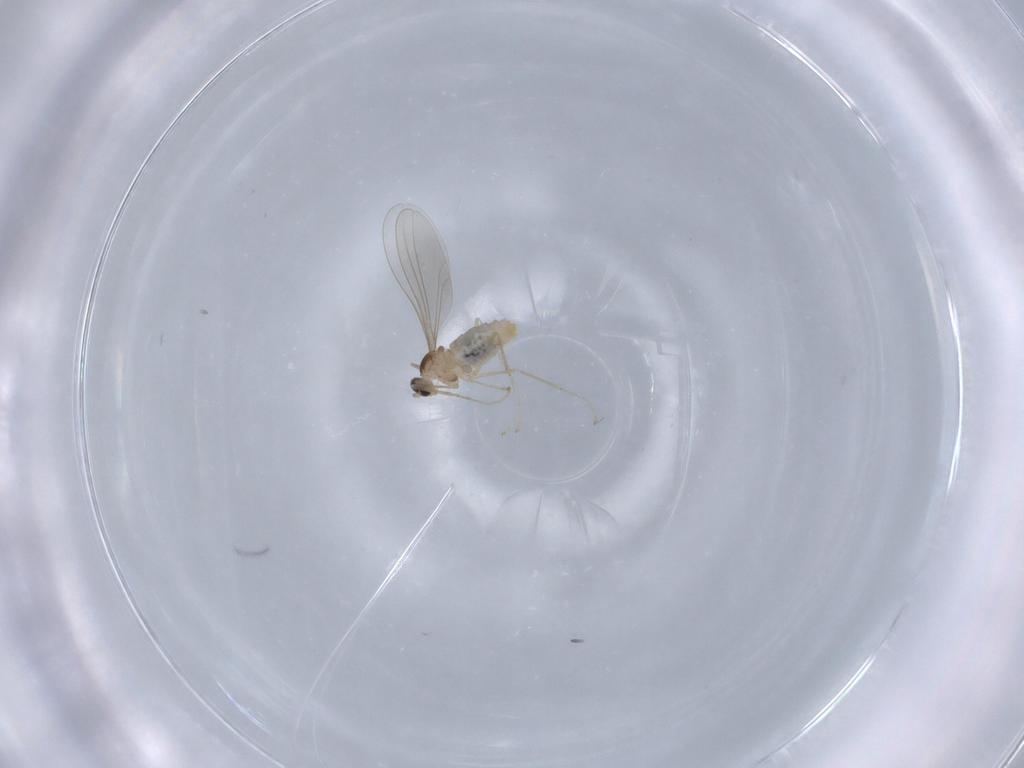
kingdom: Animalia
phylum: Arthropoda
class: Insecta
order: Diptera
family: Cecidomyiidae
